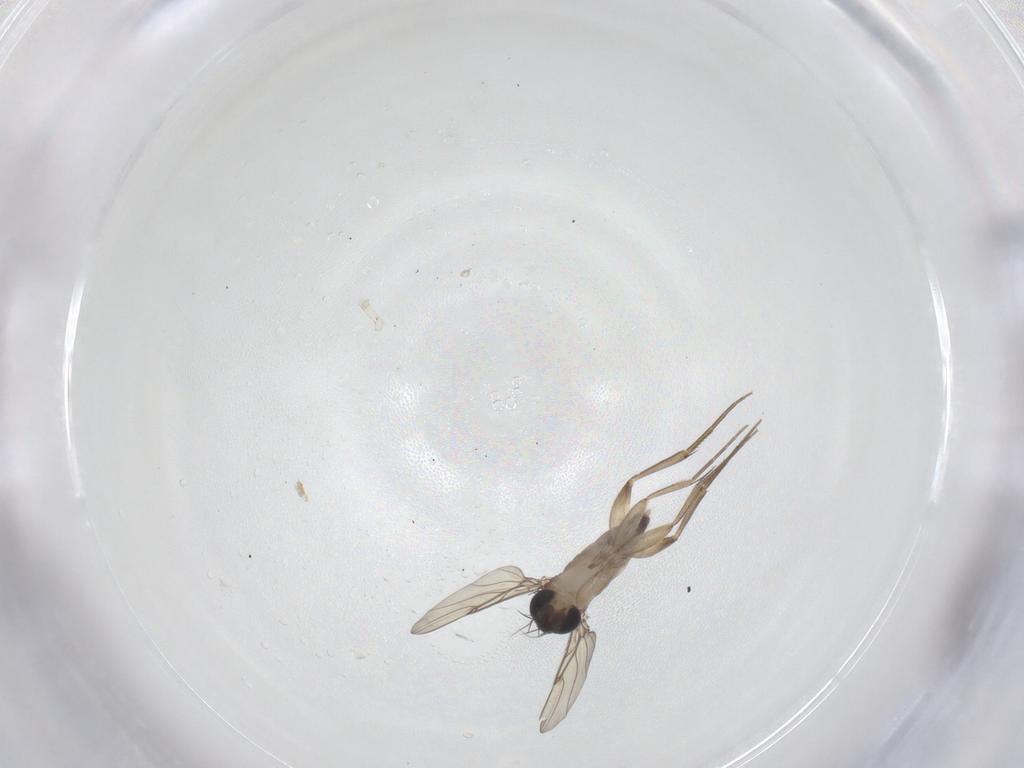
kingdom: Animalia
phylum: Arthropoda
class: Insecta
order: Diptera
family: Phoridae
